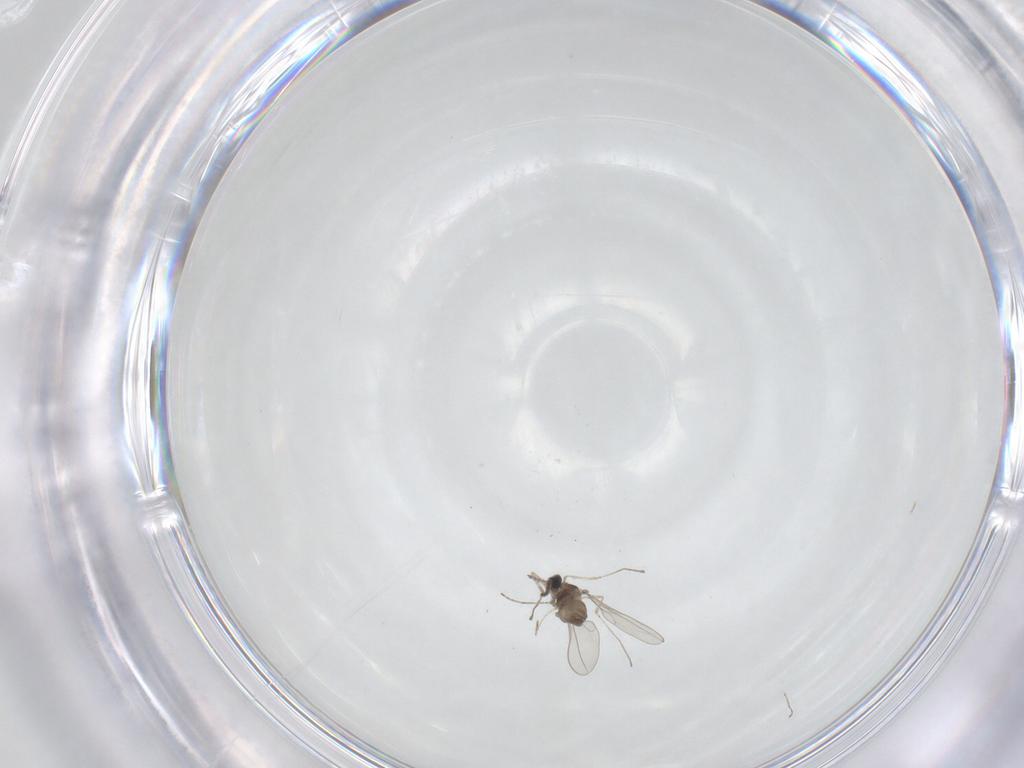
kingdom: Animalia
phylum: Arthropoda
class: Insecta
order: Diptera
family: Cecidomyiidae
